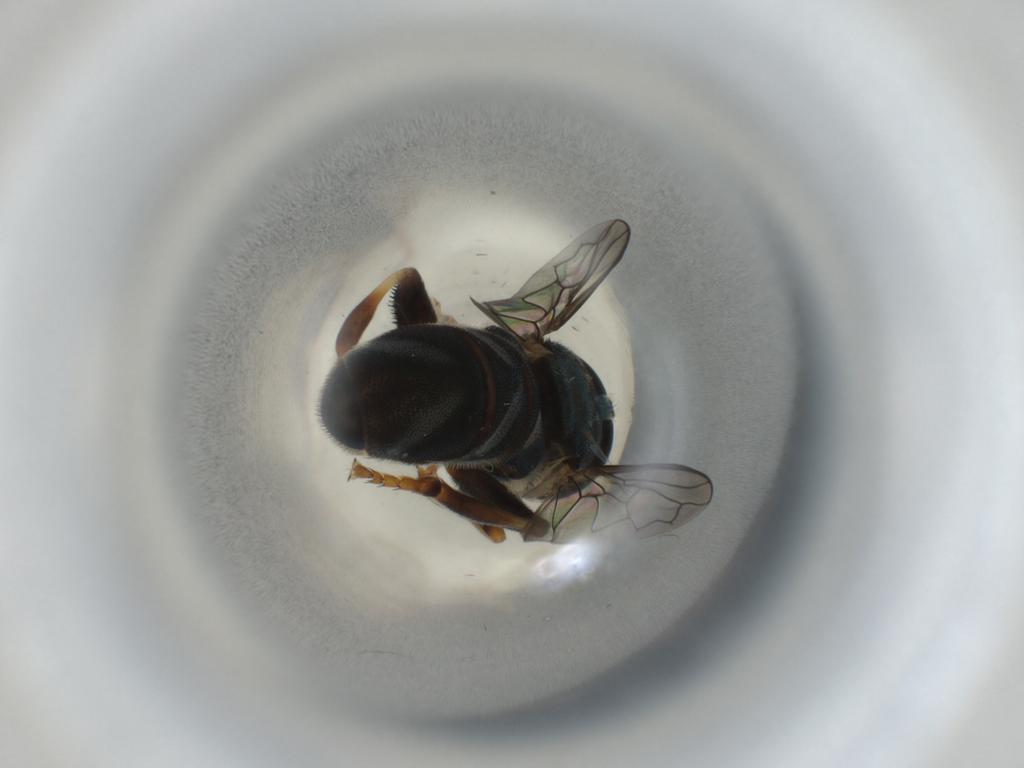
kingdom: Animalia
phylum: Arthropoda
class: Insecta
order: Diptera
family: Syrphidae
